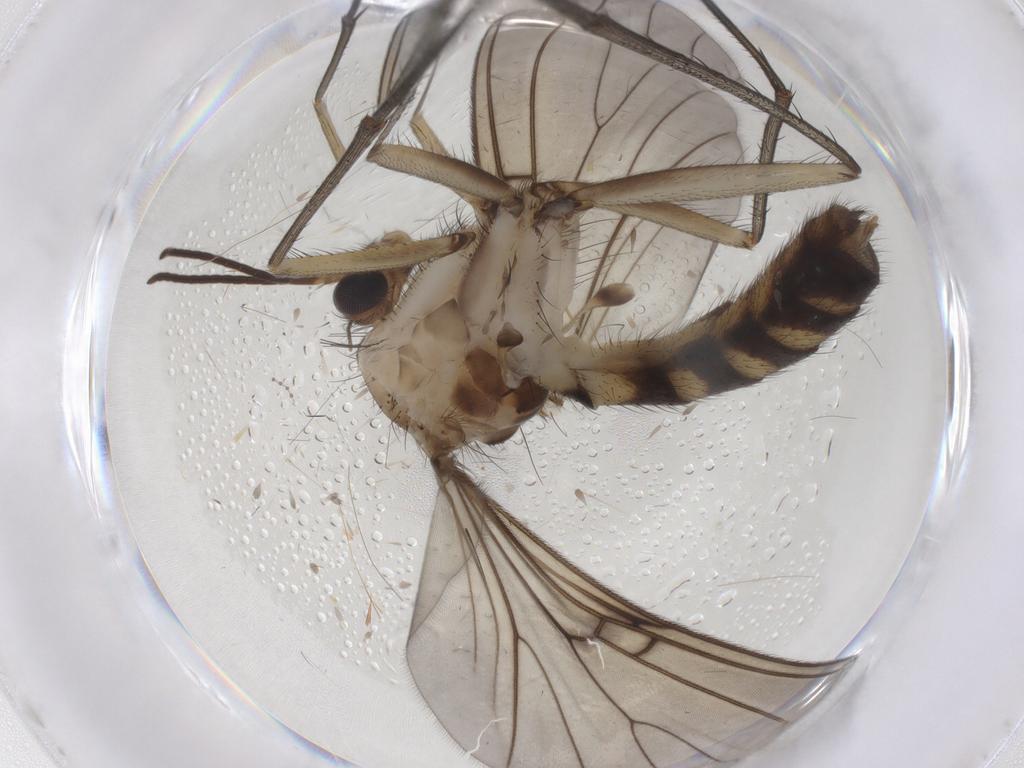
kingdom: Animalia
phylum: Arthropoda
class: Insecta
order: Diptera
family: Mycetophilidae
